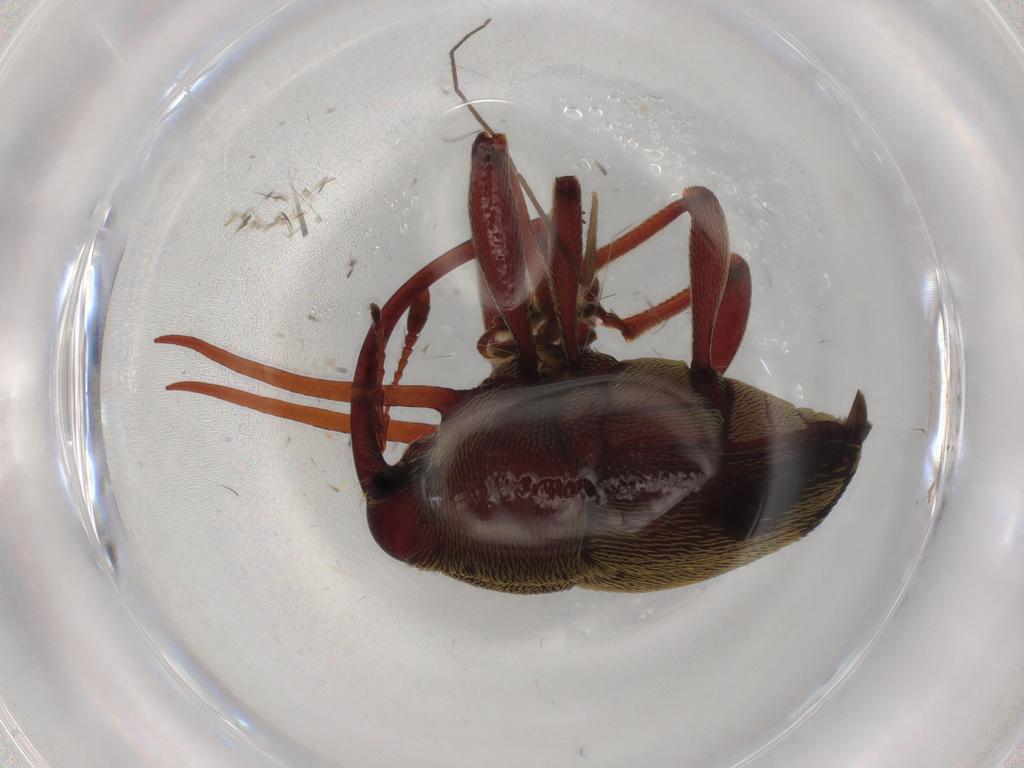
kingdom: Animalia
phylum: Arthropoda
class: Insecta
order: Coleoptera
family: Curculionidae
